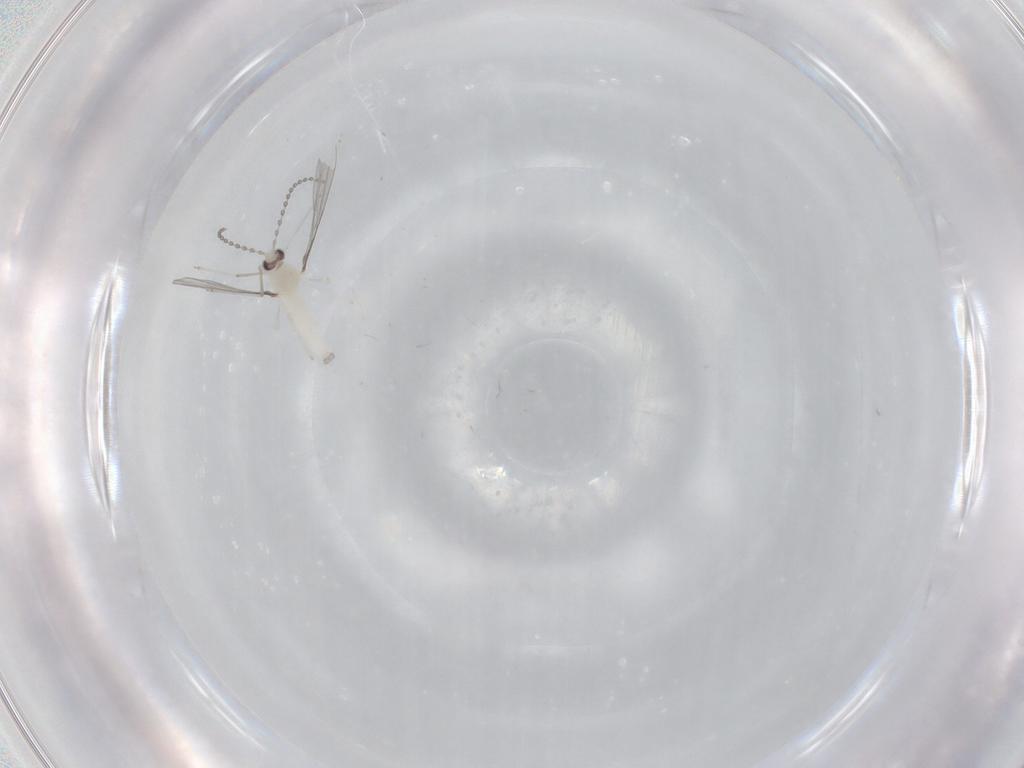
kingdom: Animalia
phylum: Arthropoda
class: Insecta
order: Diptera
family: Cecidomyiidae
